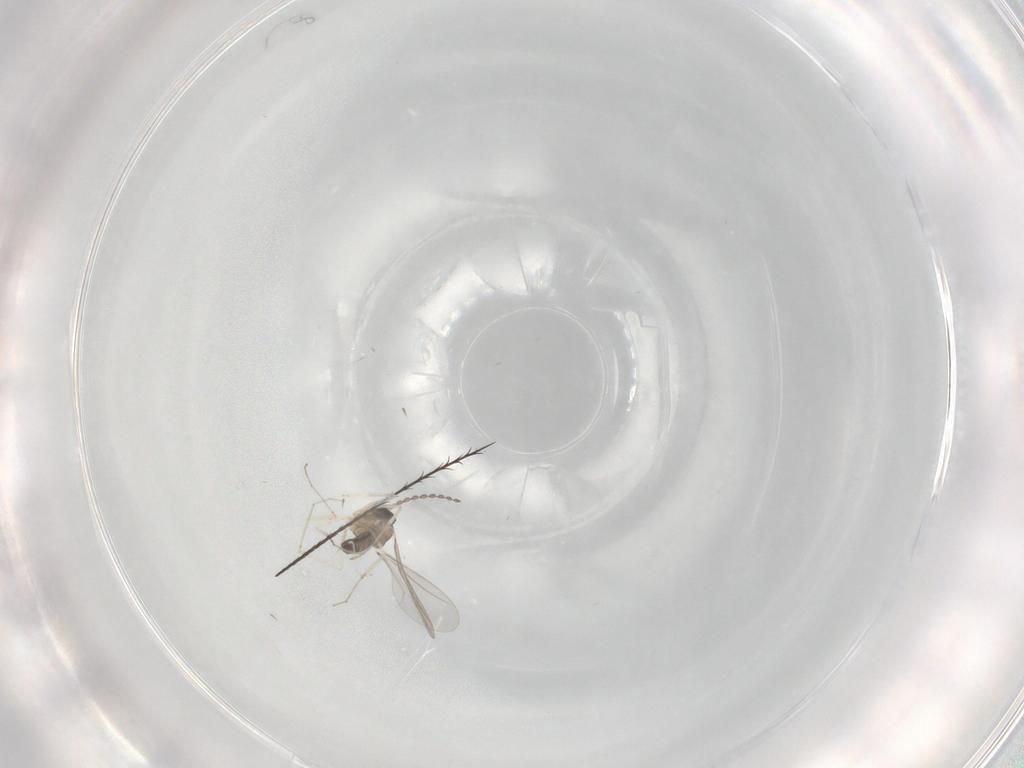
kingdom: Animalia
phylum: Arthropoda
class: Insecta
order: Diptera
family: Cecidomyiidae
